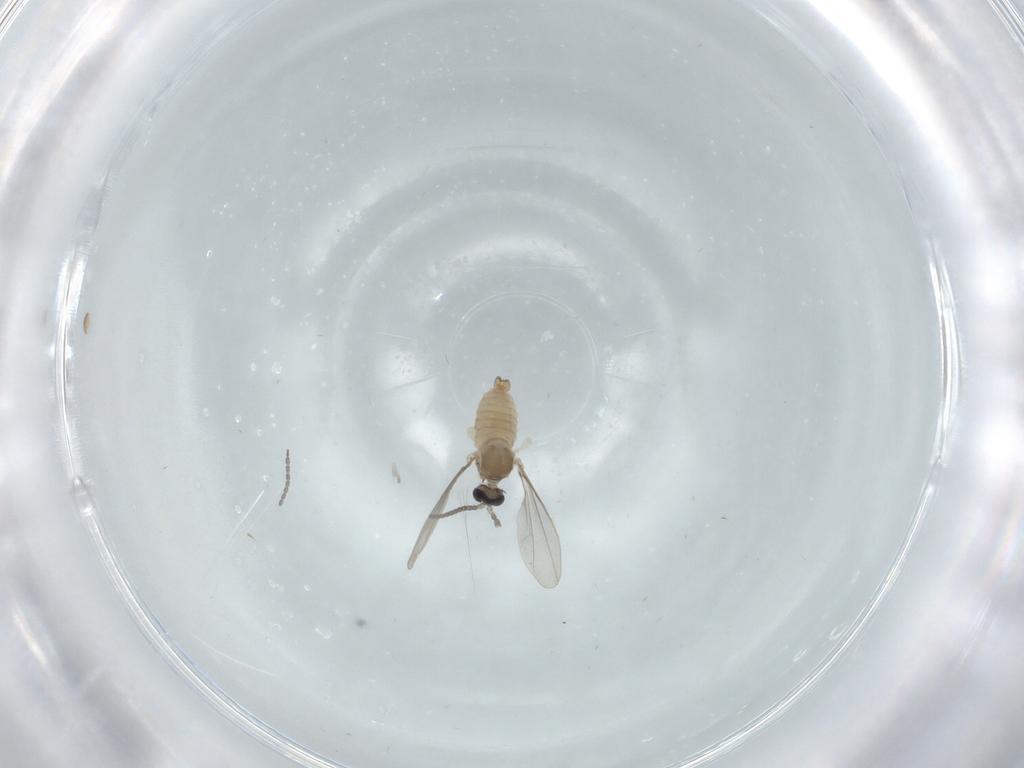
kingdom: Animalia
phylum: Arthropoda
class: Insecta
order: Diptera
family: Cecidomyiidae
